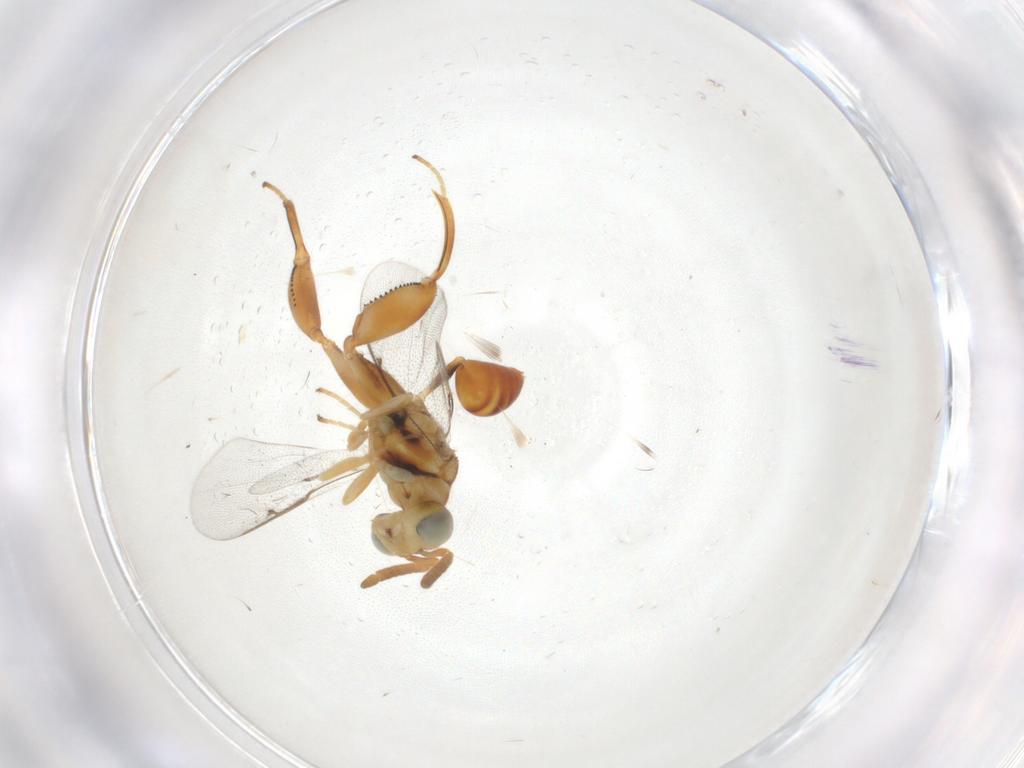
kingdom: Animalia
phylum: Arthropoda
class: Insecta
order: Hymenoptera
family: Chalcididae
